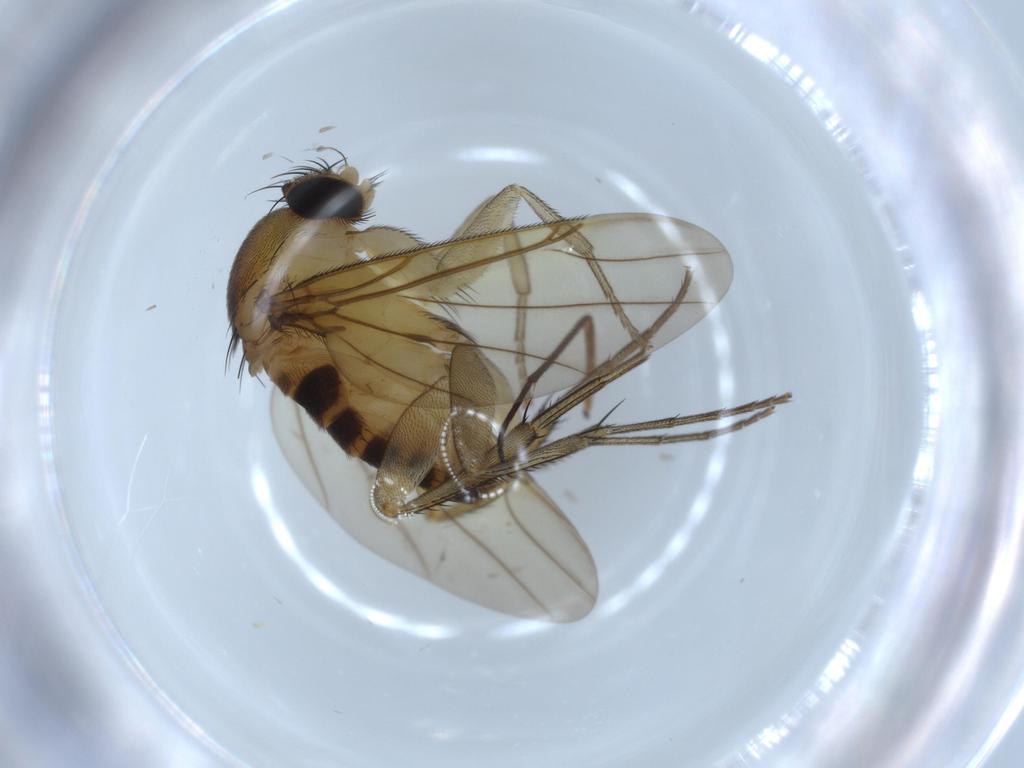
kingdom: Animalia
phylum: Arthropoda
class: Insecta
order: Diptera
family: Phoridae
